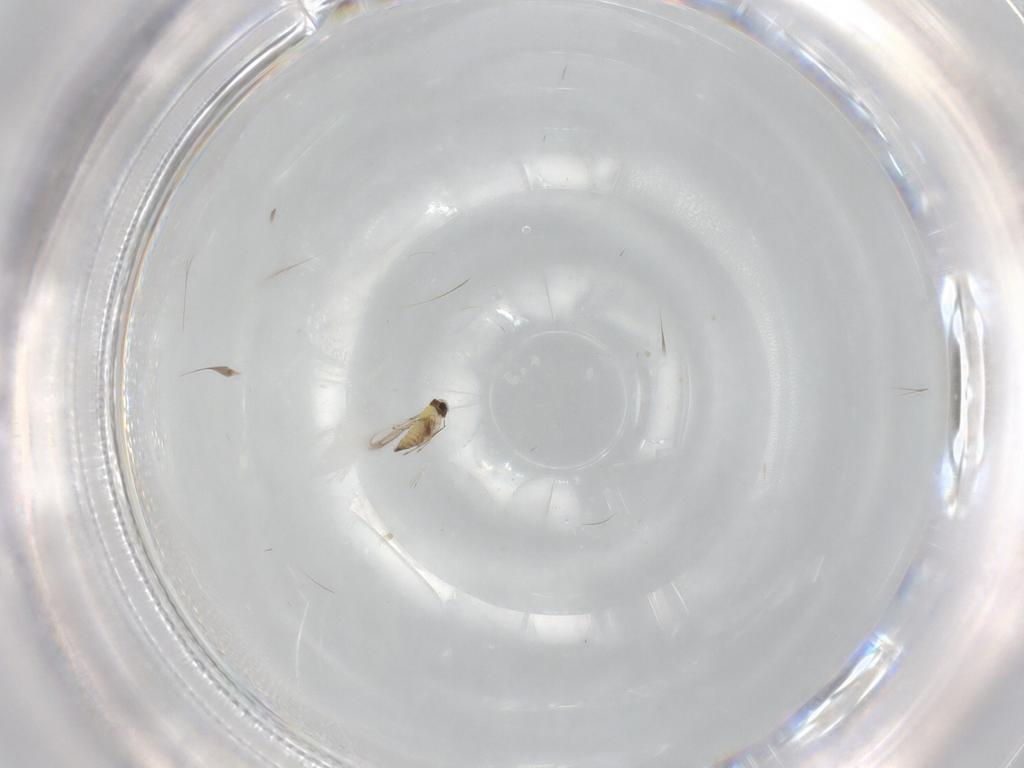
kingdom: Animalia
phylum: Arthropoda
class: Insecta
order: Hymenoptera
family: Trichogrammatidae
